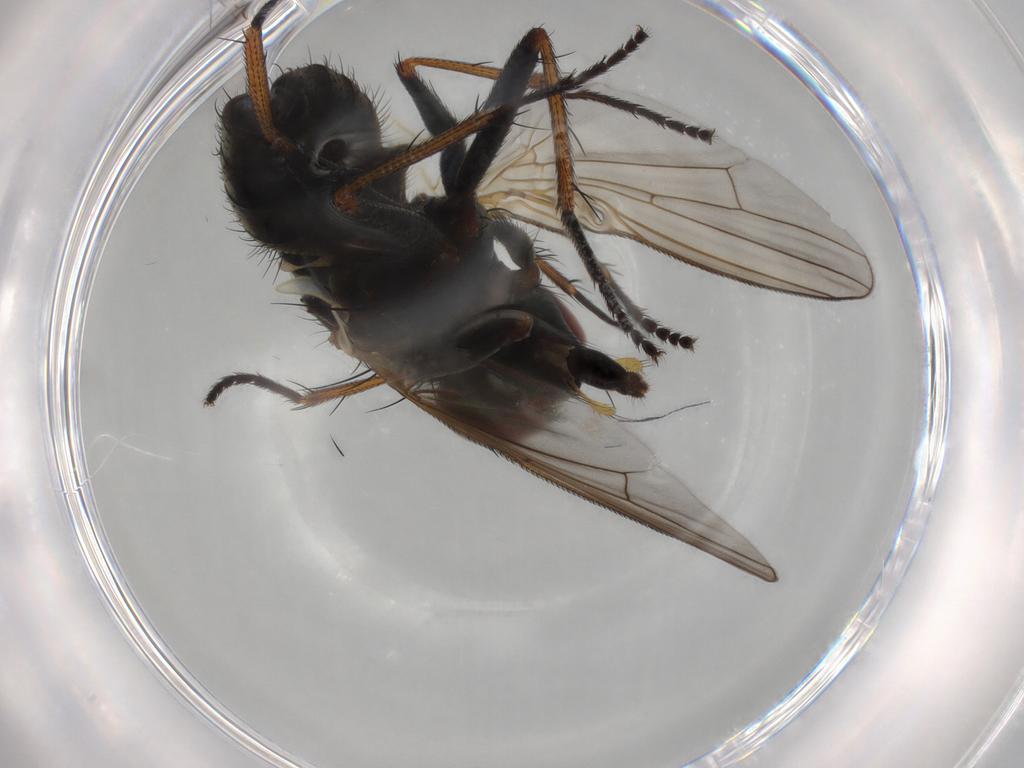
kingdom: Animalia
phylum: Arthropoda
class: Insecta
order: Diptera
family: Muscidae
